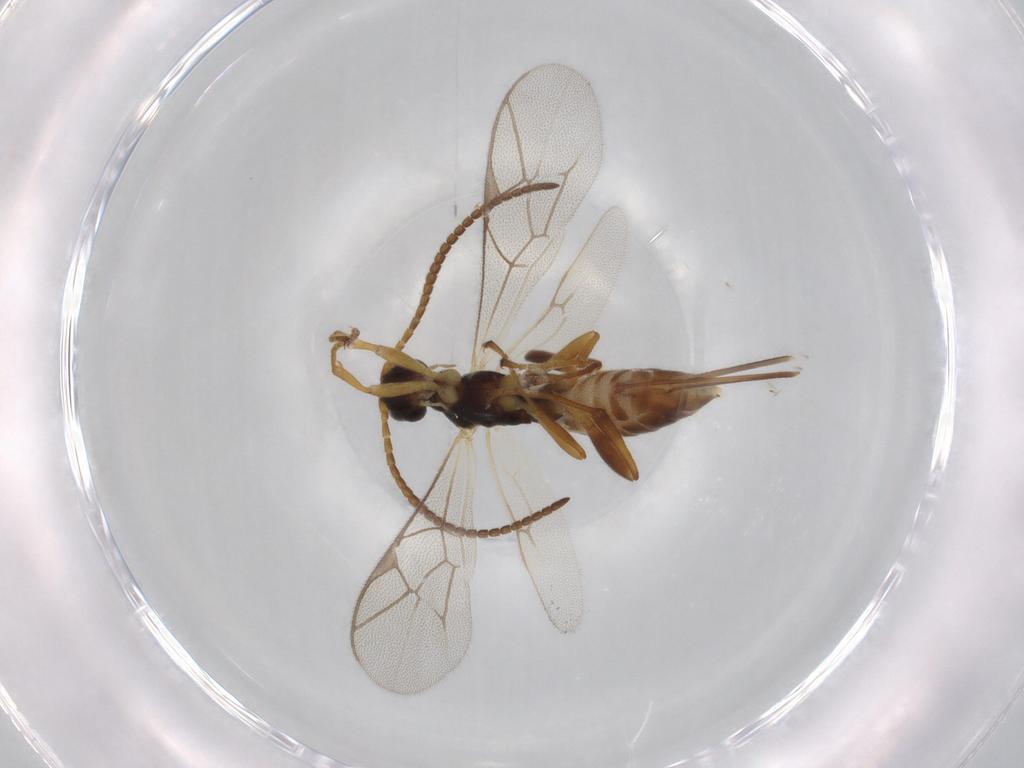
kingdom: Animalia
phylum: Arthropoda
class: Insecta
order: Hymenoptera
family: Ichneumonidae
